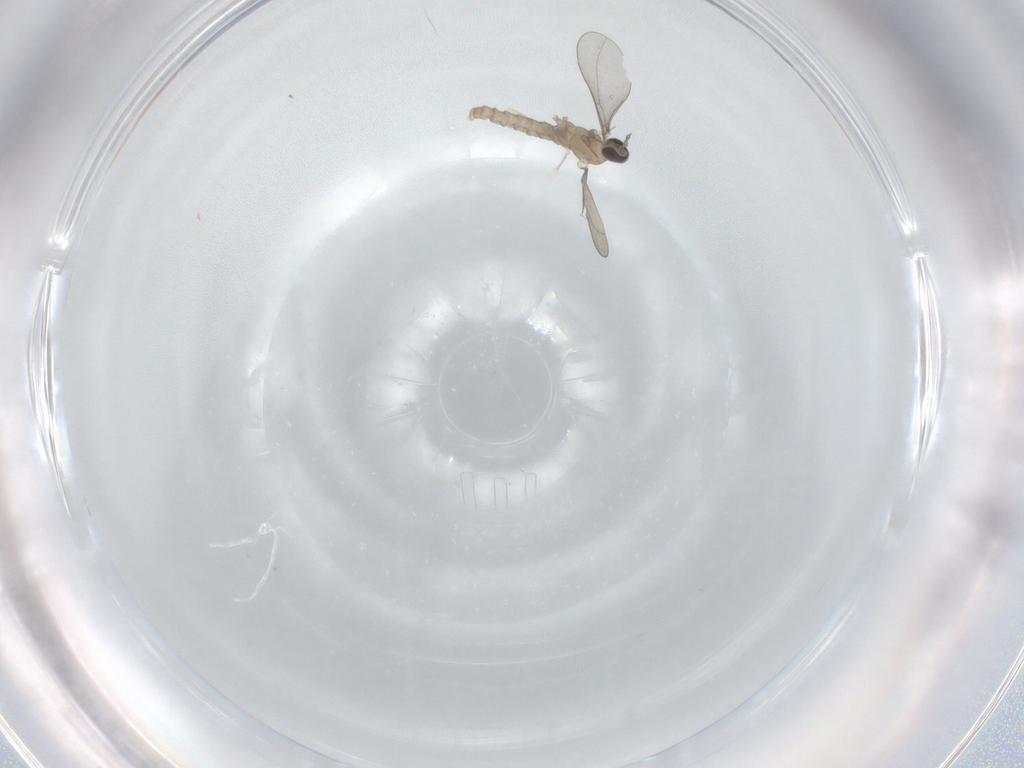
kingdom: Animalia
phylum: Arthropoda
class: Insecta
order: Diptera
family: Sciaridae
